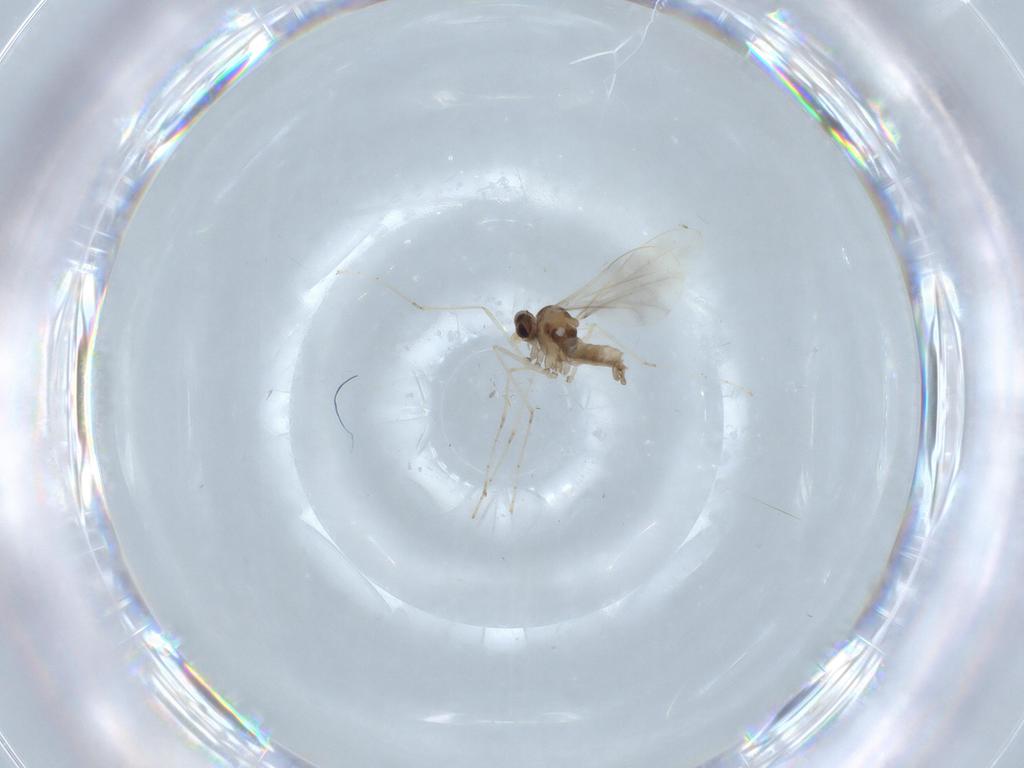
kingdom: Animalia
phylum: Arthropoda
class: Insecta
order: Diptera
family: Cecidomyiidae
